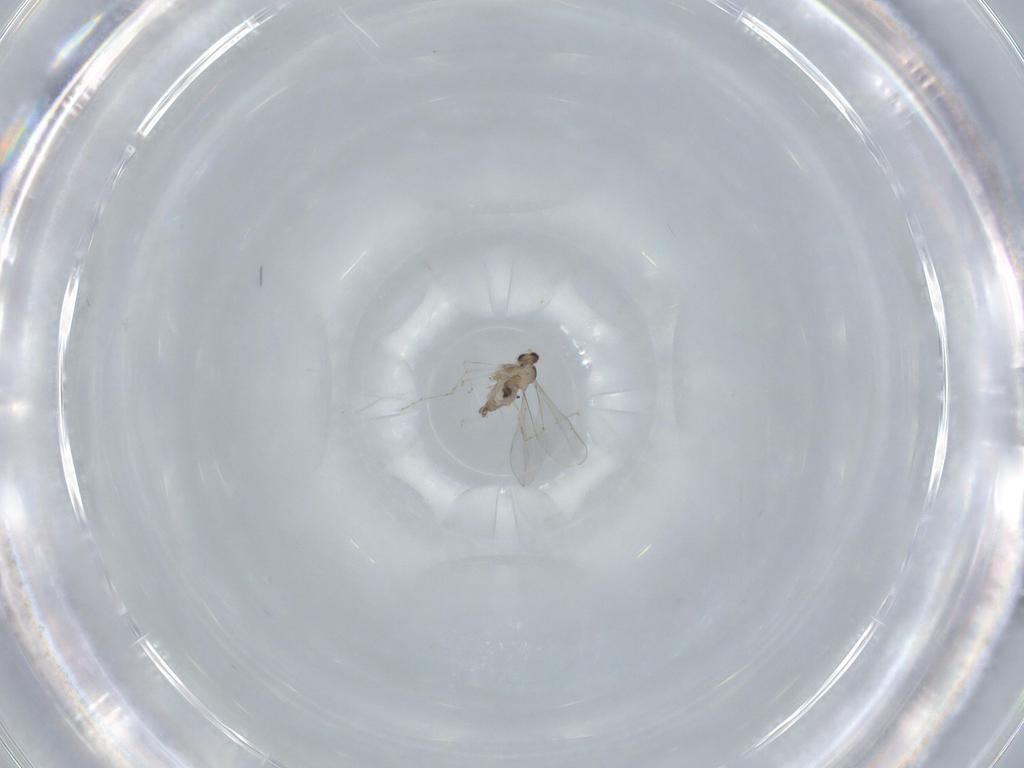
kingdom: Animalia
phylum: Arthropoda
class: Insecta
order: Diptera
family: Cecidomyiidae
